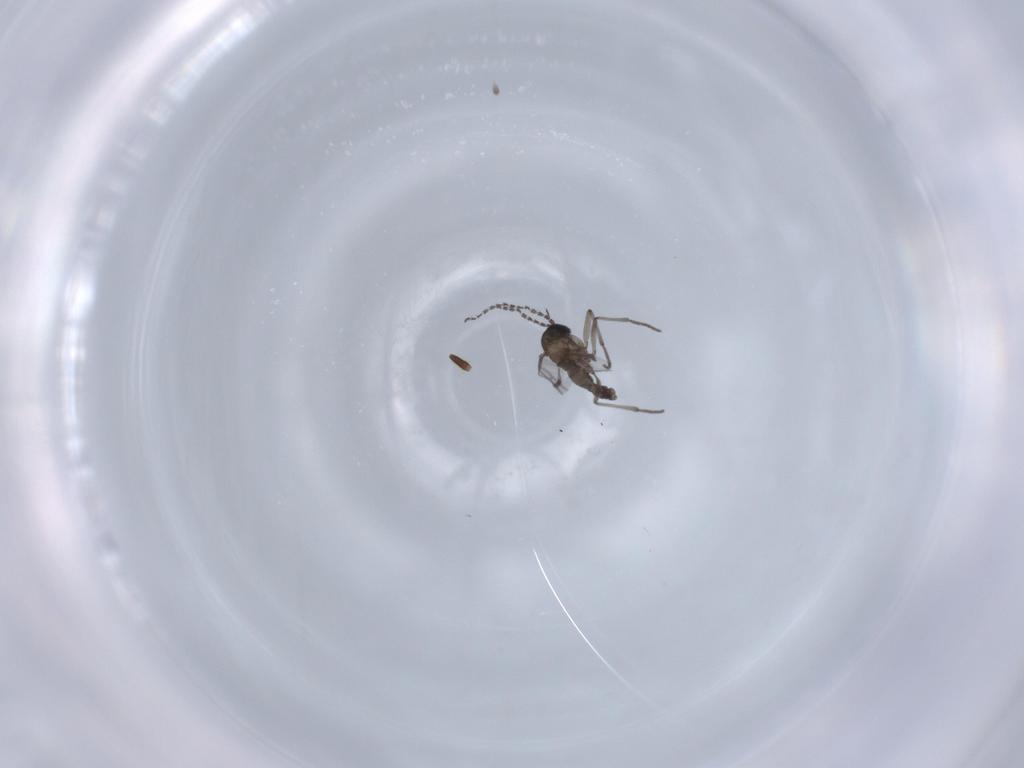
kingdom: Animalia
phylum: Arthropoda
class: Insecta
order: Diptera
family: Sciaridae
